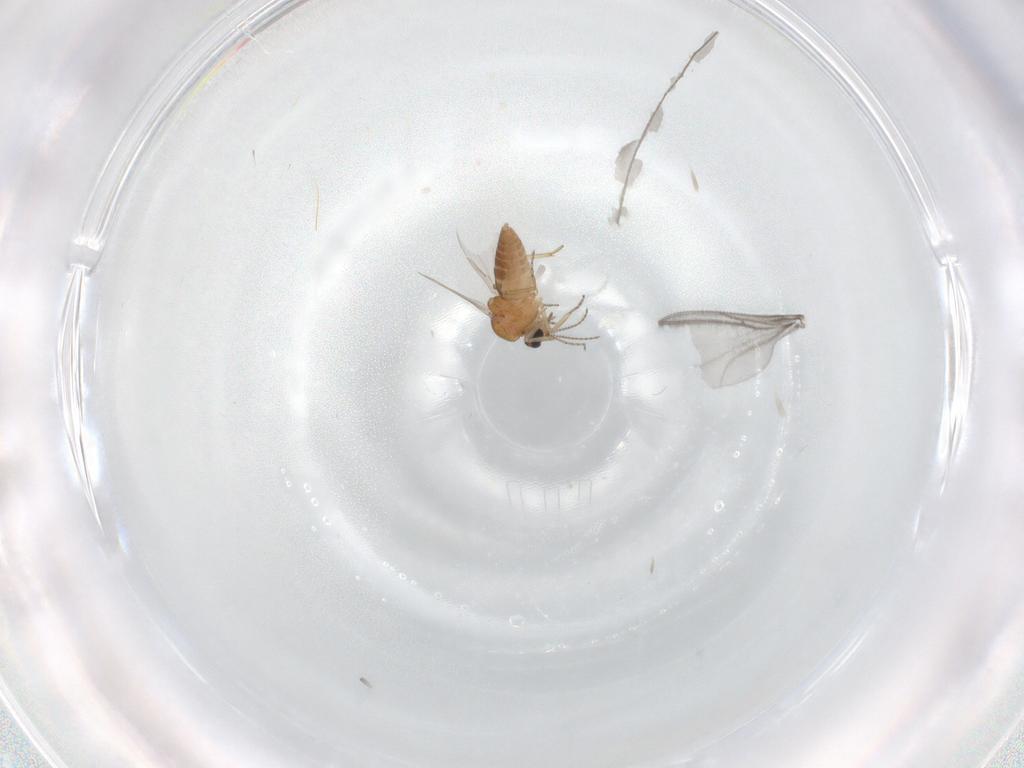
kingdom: Animalia
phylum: Arthropoda
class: Insecta
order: Diptera
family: Ceratopogonidae
